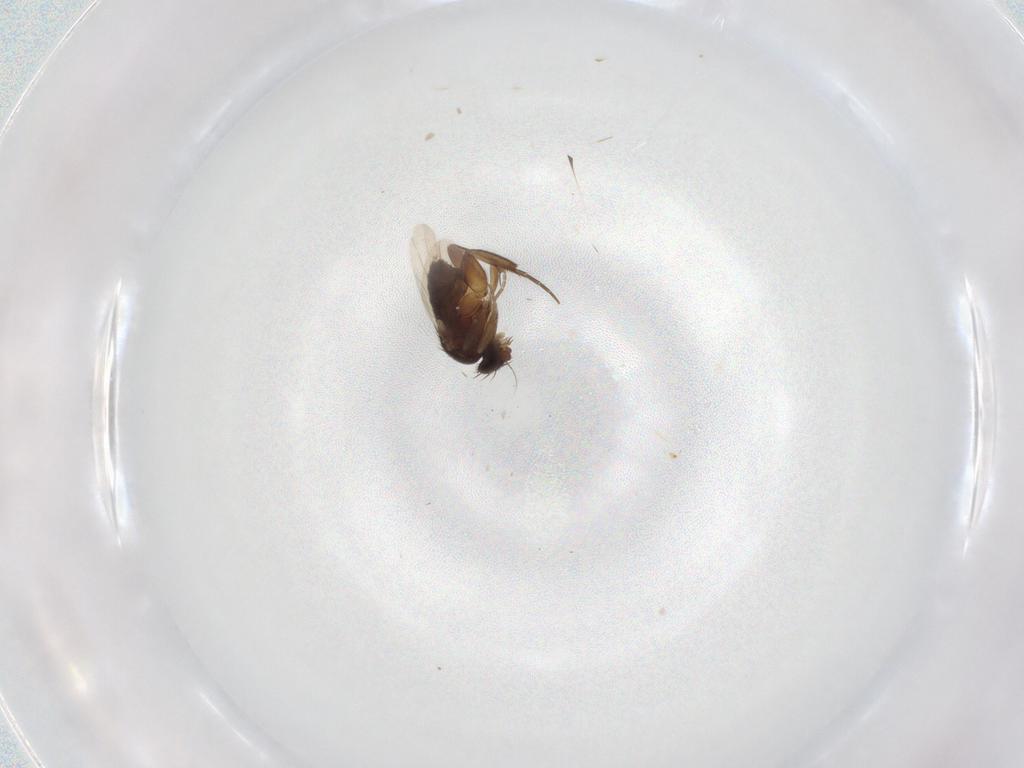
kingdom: Animalia
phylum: Arthropoda
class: Insecta
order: Diptera
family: Phoridae
